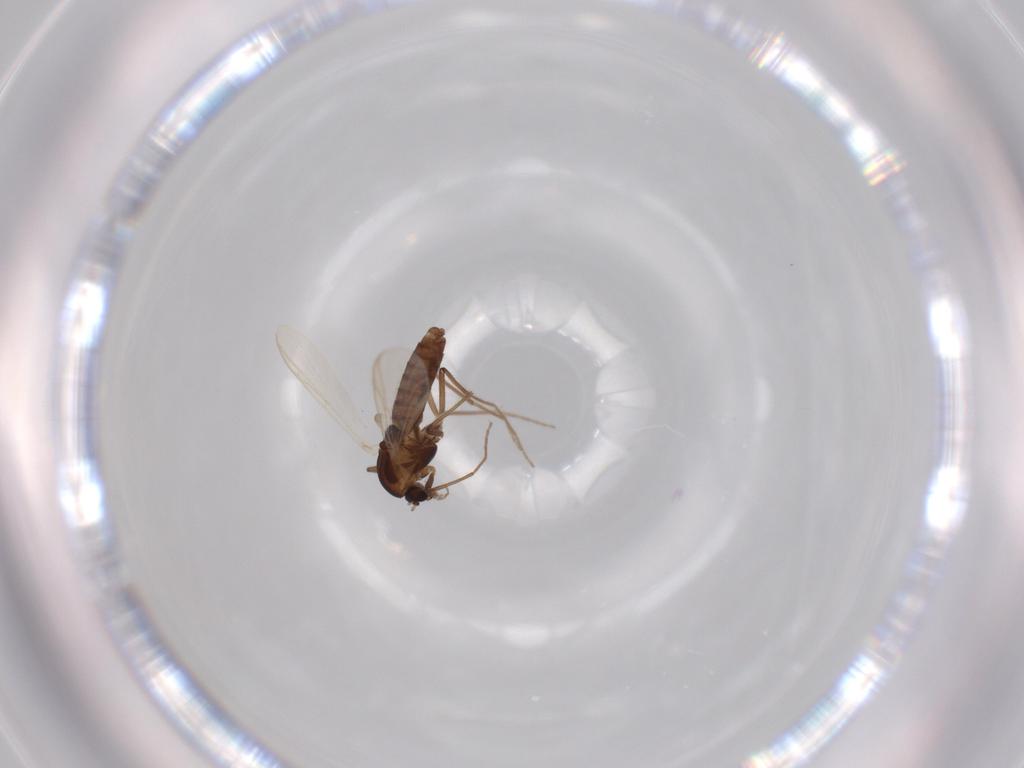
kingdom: Animalia
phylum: Arthropoda
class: Insecta
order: Diptera
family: Chironomidae
